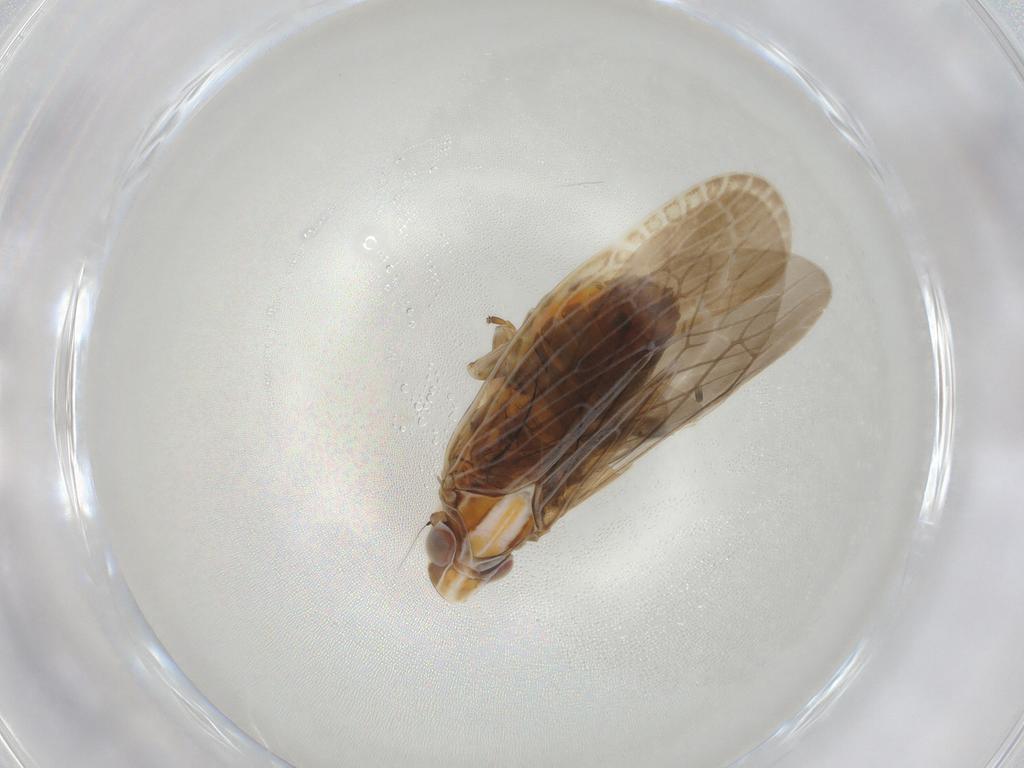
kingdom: Animalia
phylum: Arthropoda
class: Insecta
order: Hemiptera
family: Achilidae
